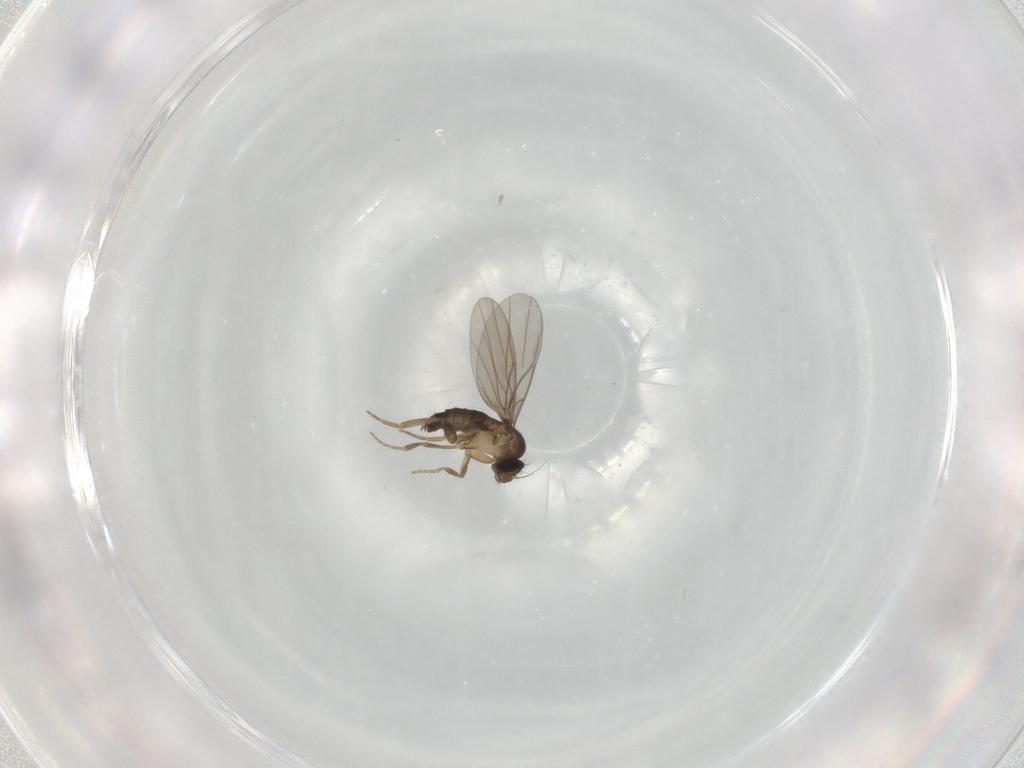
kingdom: Animalia
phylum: Arthropoda
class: Insecta
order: Diptera
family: Phoridae
